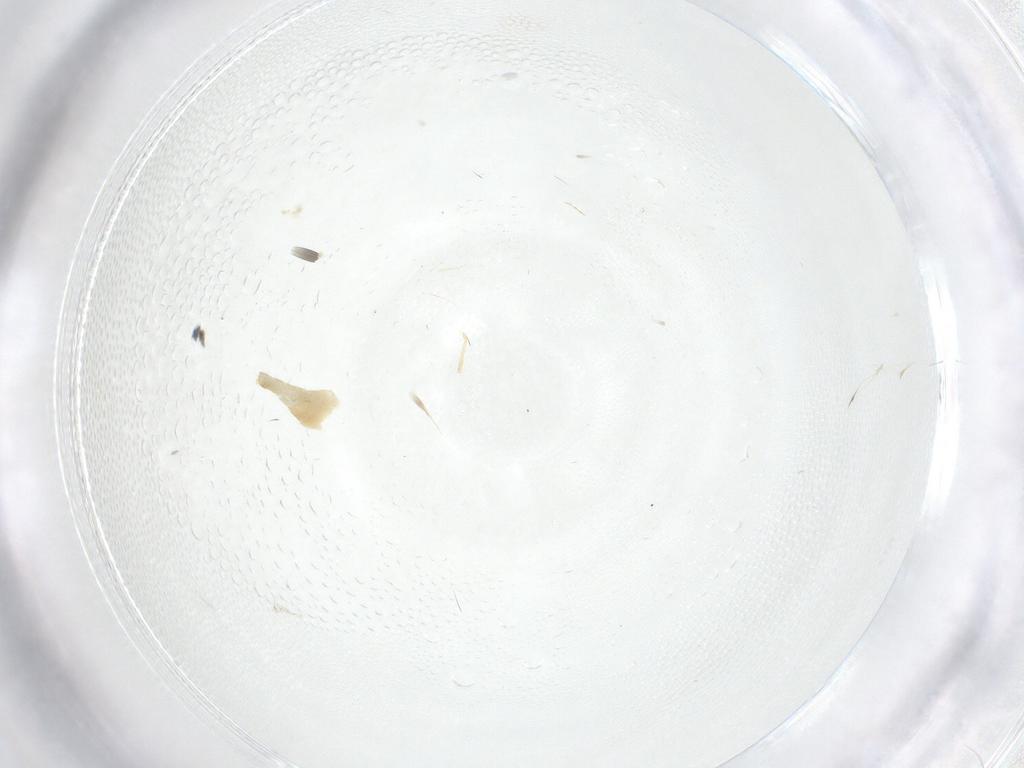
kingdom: Animalia
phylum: Arthropoda
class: Insecta
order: Diptera
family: Chironomidae
